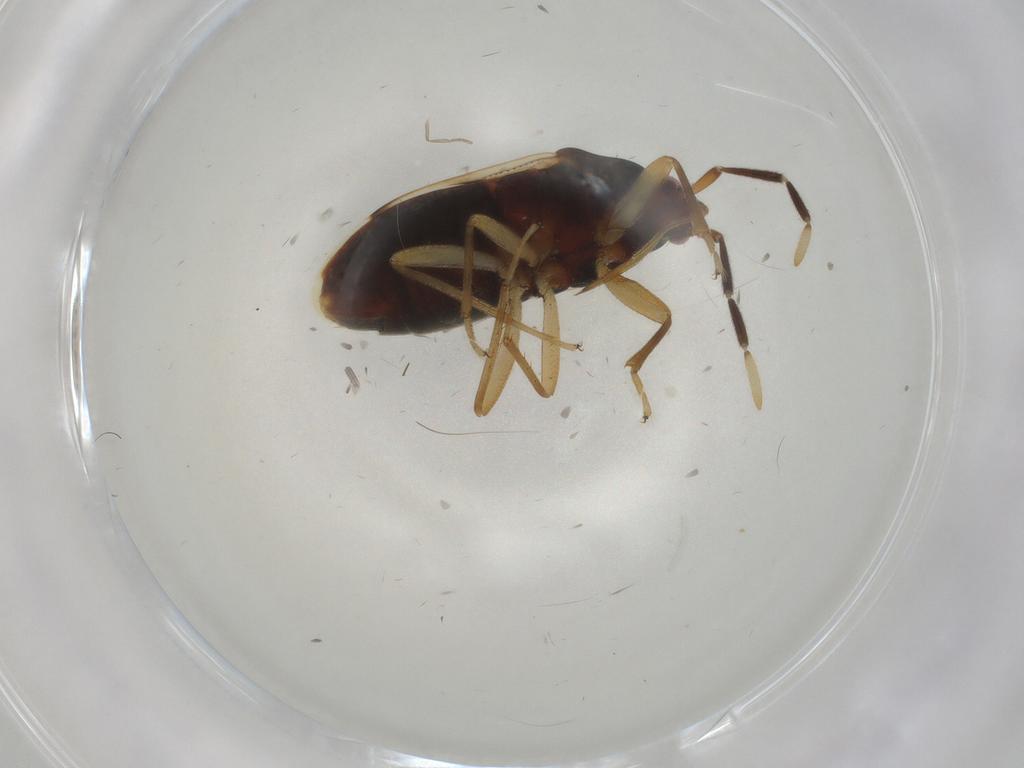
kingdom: Animalia
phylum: Arthropoda
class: Insecta
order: Hemiptera
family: Rhyparochromidae
